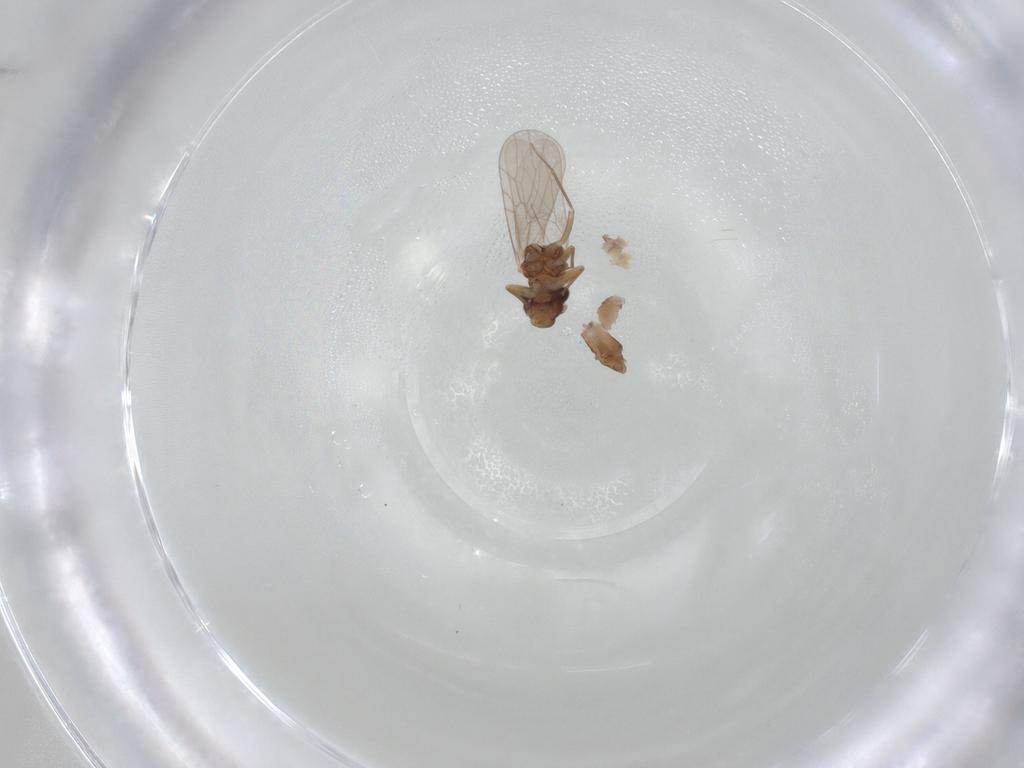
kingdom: Animalia
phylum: Arthropoda
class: Insecta
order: Psocodea
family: Lepidopsocidae
